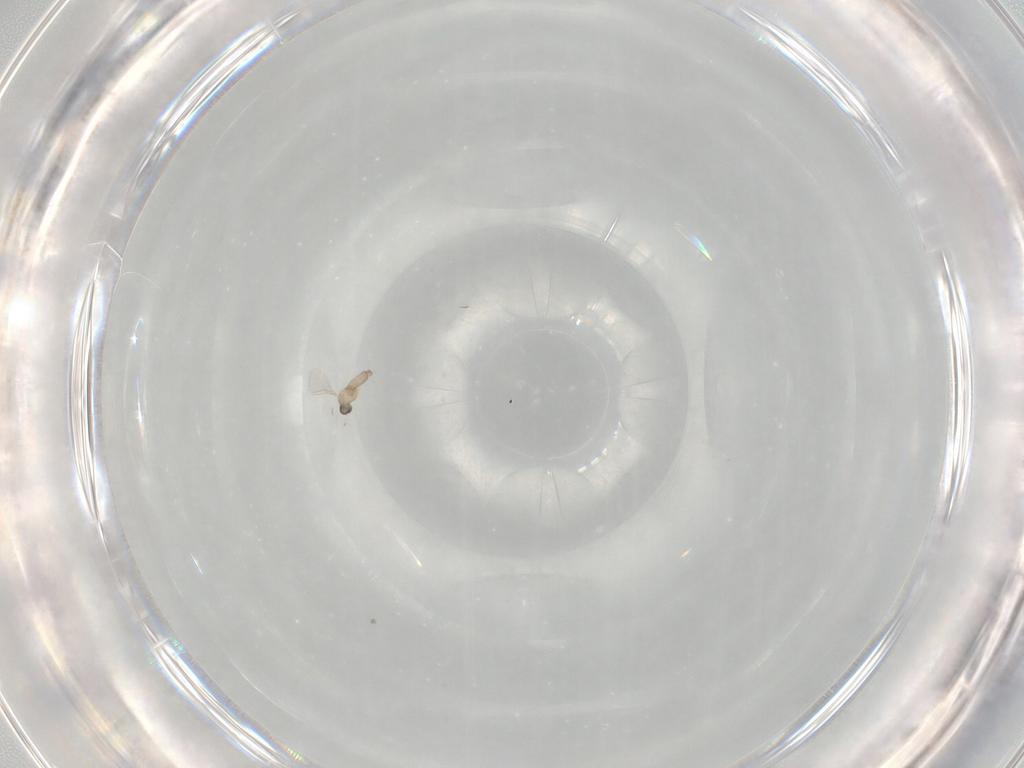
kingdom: Animalia
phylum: Arthropoda
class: Insecta
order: Diptera
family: Cecidomyiidae
